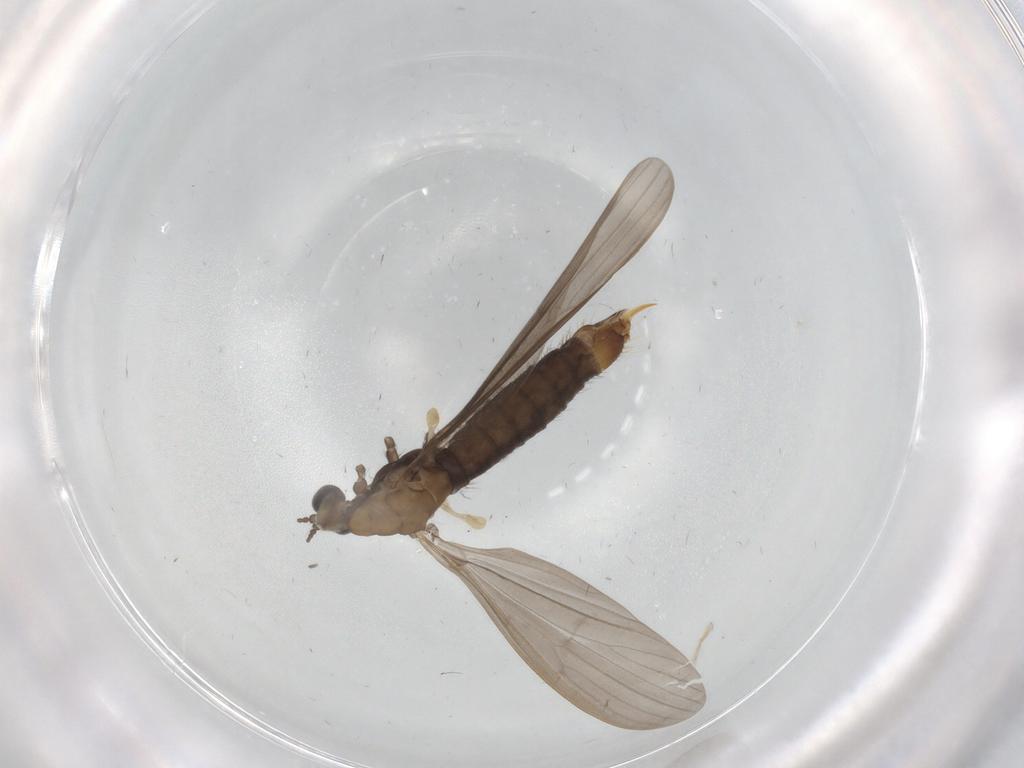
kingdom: Animalia
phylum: Arthropoda
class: Insecta
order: Diptera
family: Limoniidae
